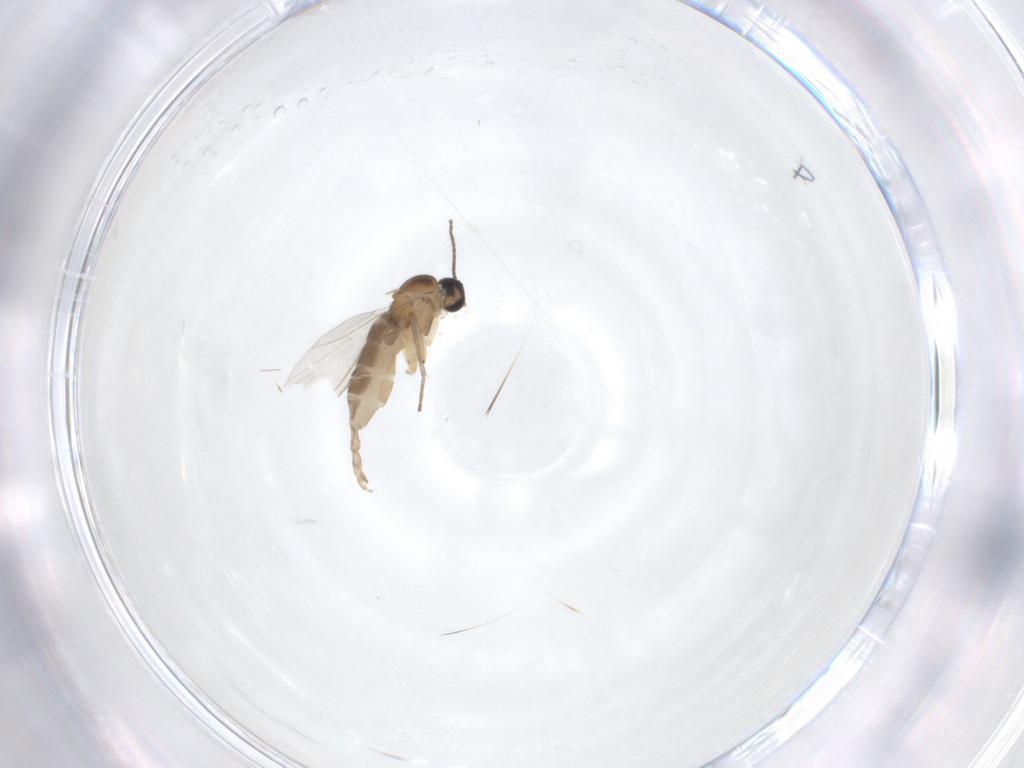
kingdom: Animalia
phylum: Arthropoda
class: Insecta
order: Diptera
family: Sciaridae
